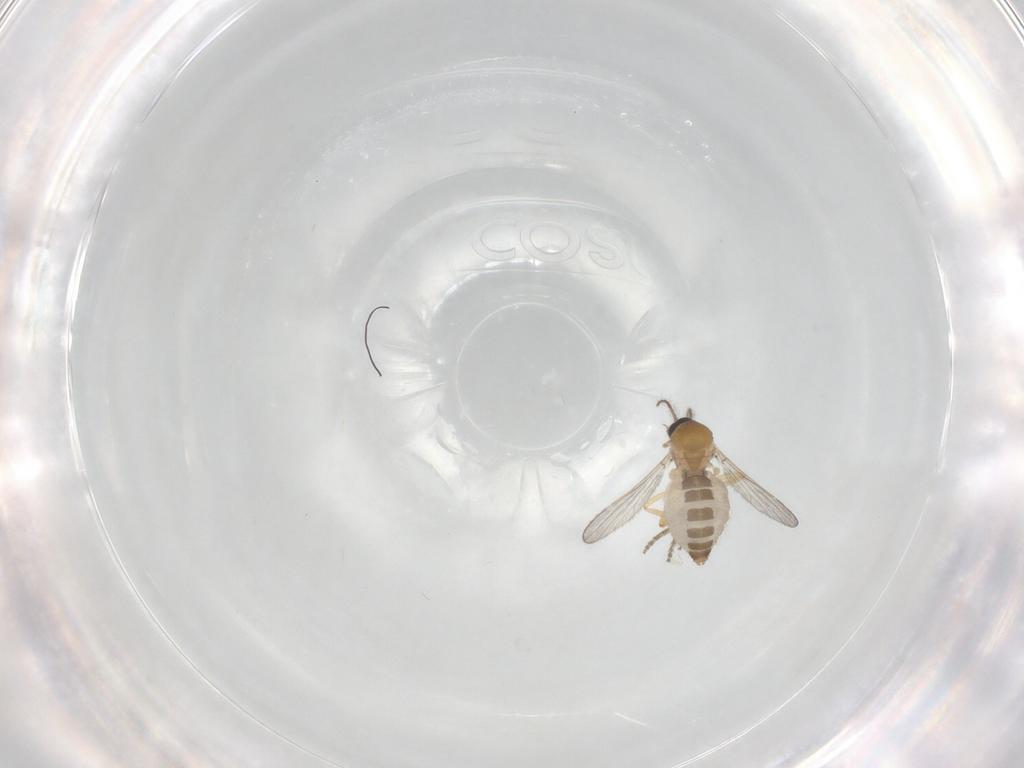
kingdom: Animalia
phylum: Arthropoda
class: Insecta
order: Diptera
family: Ceratopogonidae
